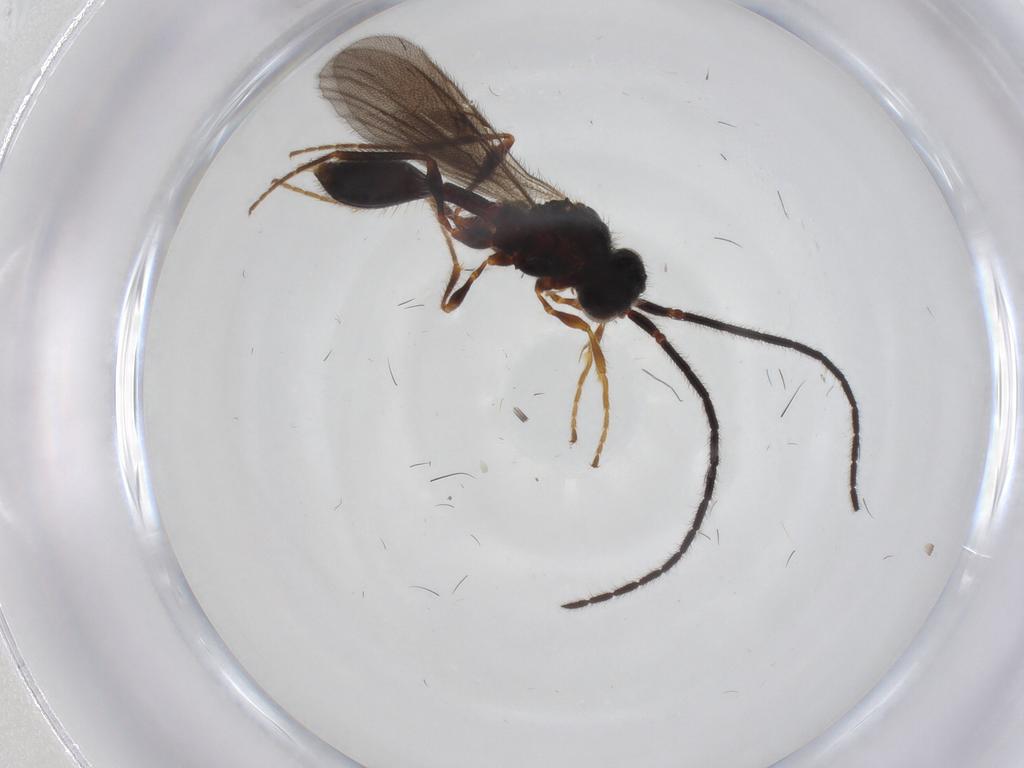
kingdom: Animalia
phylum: Arthropoda
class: Insecta
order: Hymenoptera
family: Diapriidae
